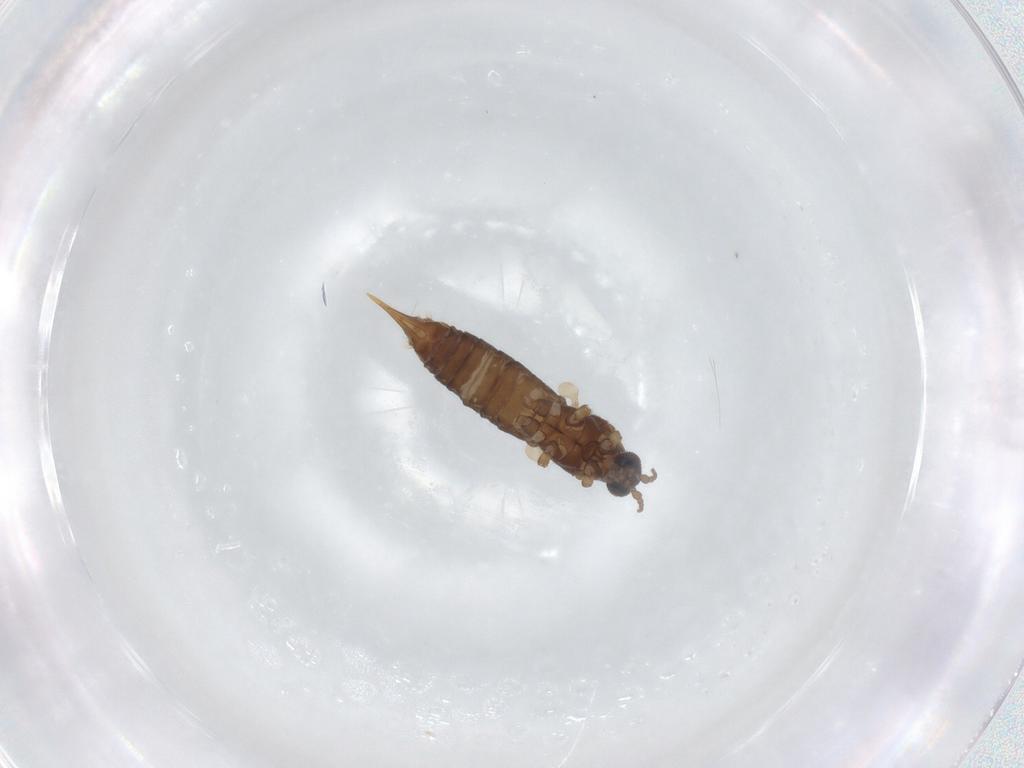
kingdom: Animalia
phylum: Arthropoda
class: Insecta
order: Diptera
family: Limoniidae
